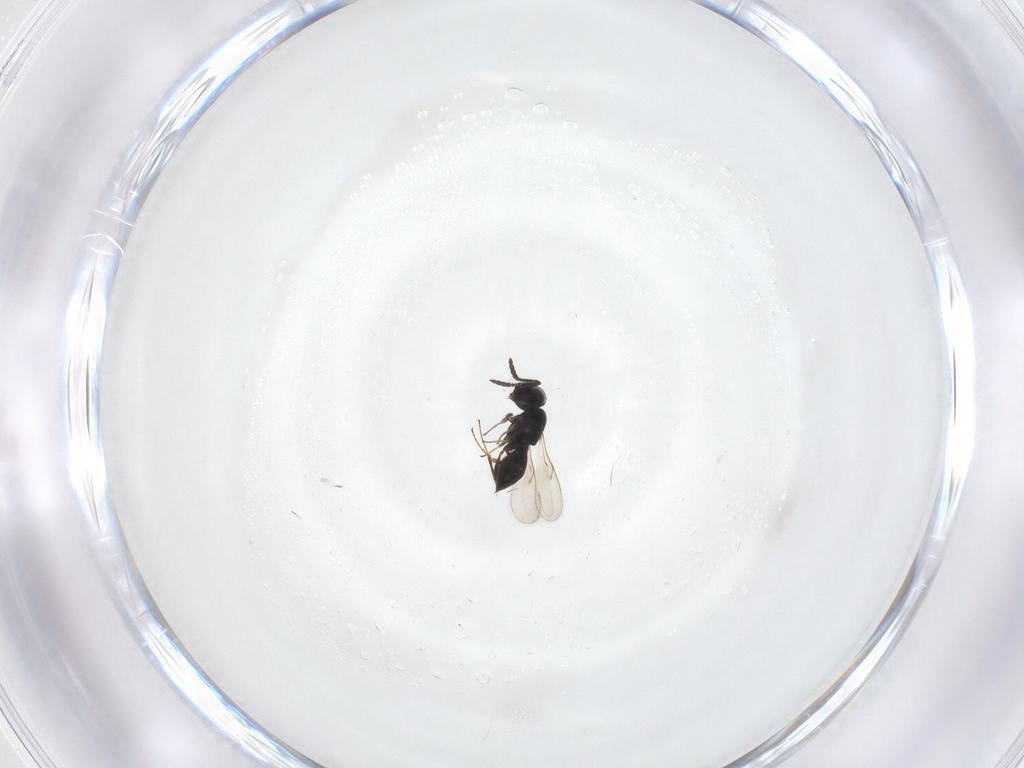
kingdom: Animalia
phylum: Arthropoda
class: Insecta
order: Hymenoptera
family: Scelionidae
